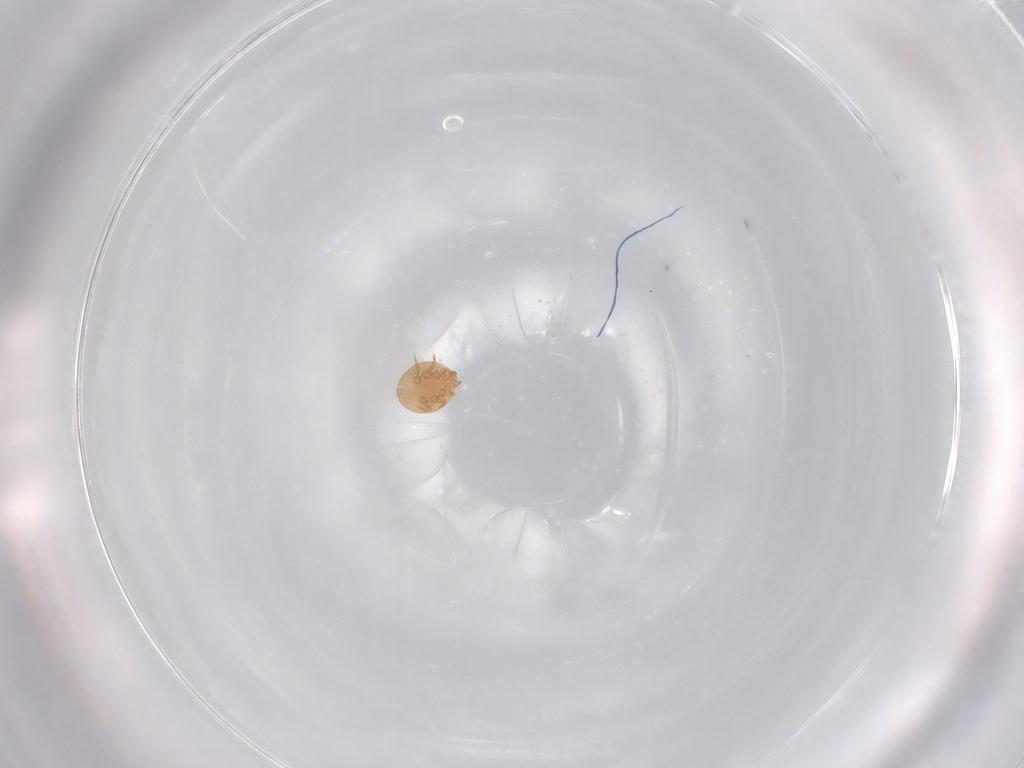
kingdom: Animalia
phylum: Arthropoda
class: Arachnida
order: Mesostigmata
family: Trematuridae
